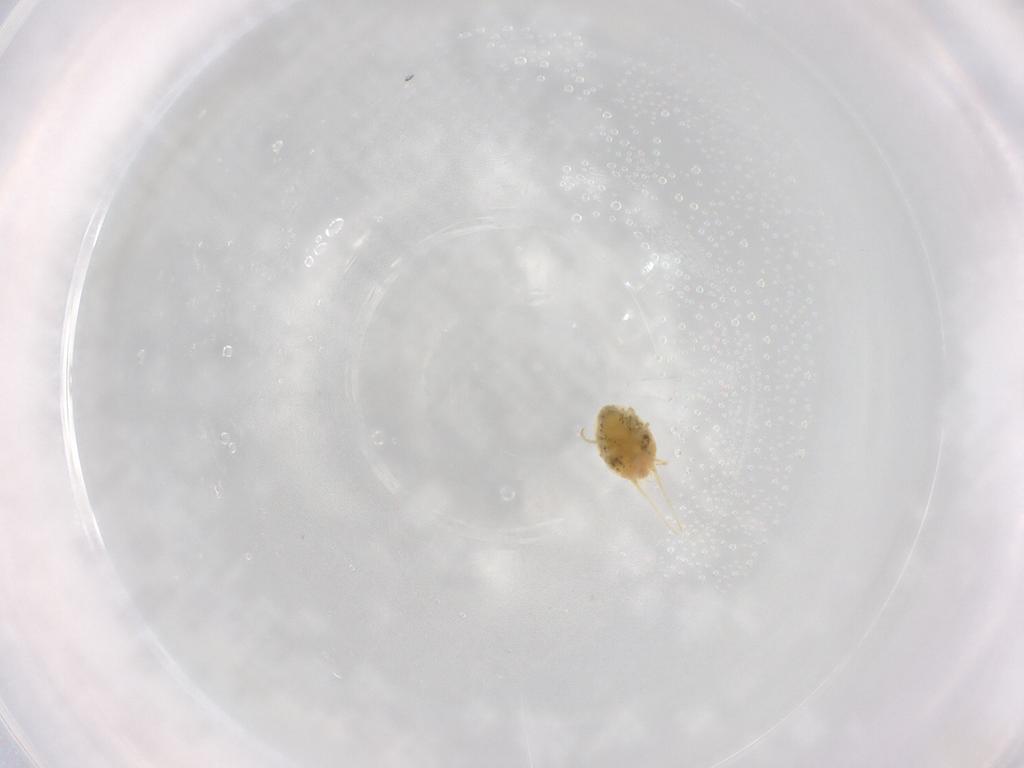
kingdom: Animalia
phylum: Arthropoda
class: Arachnida
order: Trombidiformes
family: Tetranychidae
